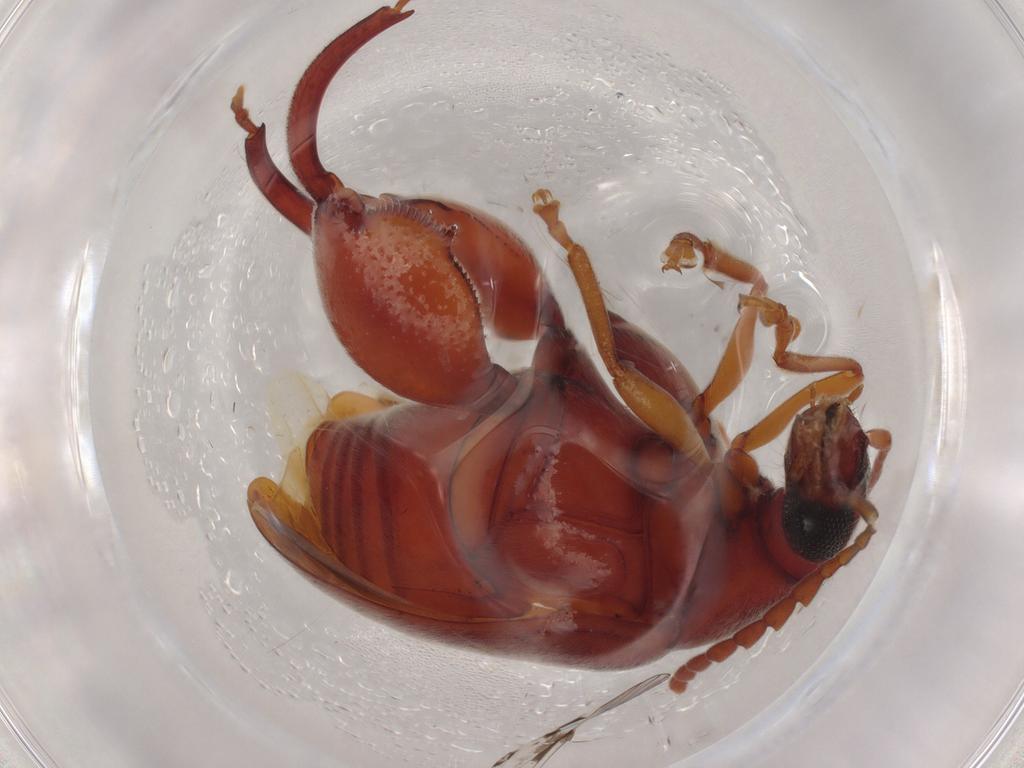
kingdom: Animalia
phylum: Arthropoda
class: Insecta
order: Coleoptera
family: Chrysomelidae
